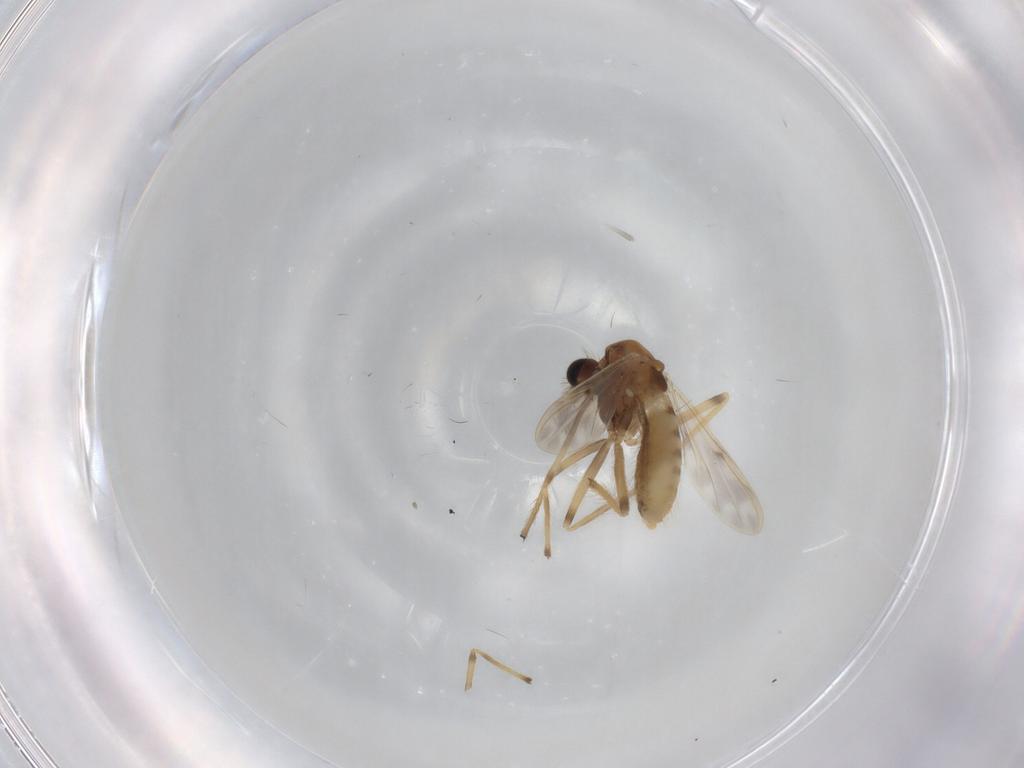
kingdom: Animalia
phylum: Arthropoda
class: Insecta
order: Diptera
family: Chironomidae
